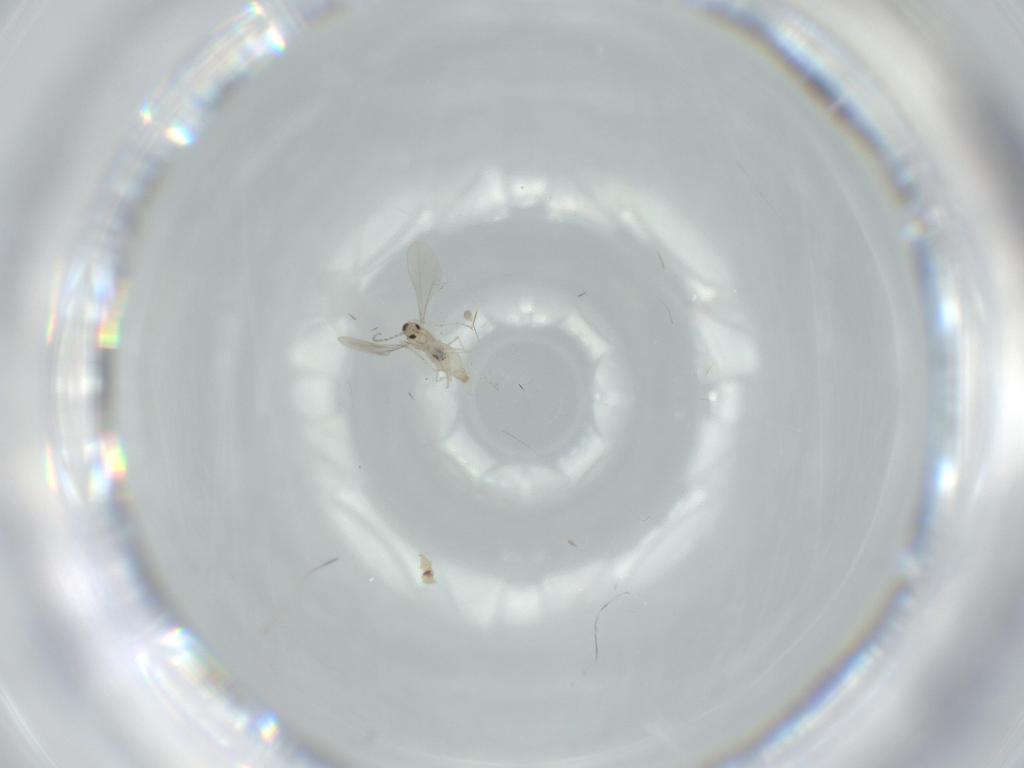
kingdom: Animalia
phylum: Arthropoda
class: Insecta
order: Diptera
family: Cecidomyiidae
